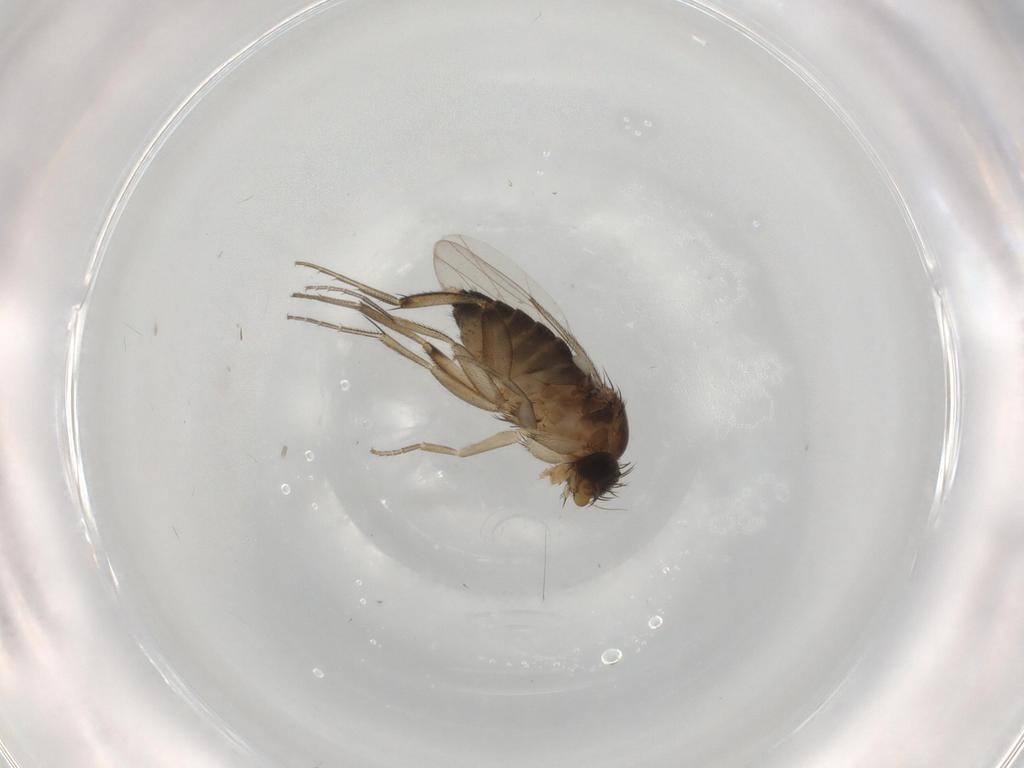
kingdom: Animalia
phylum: Arthropoda
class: Insecta
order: Diptera
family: Phoridae
